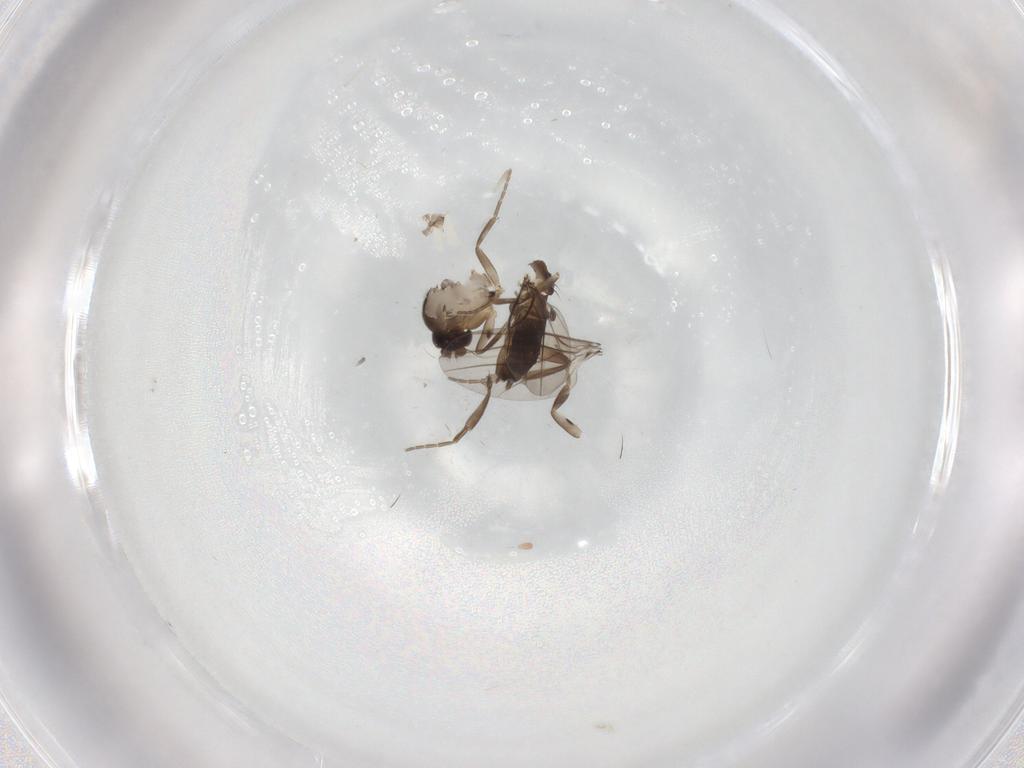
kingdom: Animalia
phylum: Arthropoda
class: Insecta
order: Diptera
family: Phoridae
